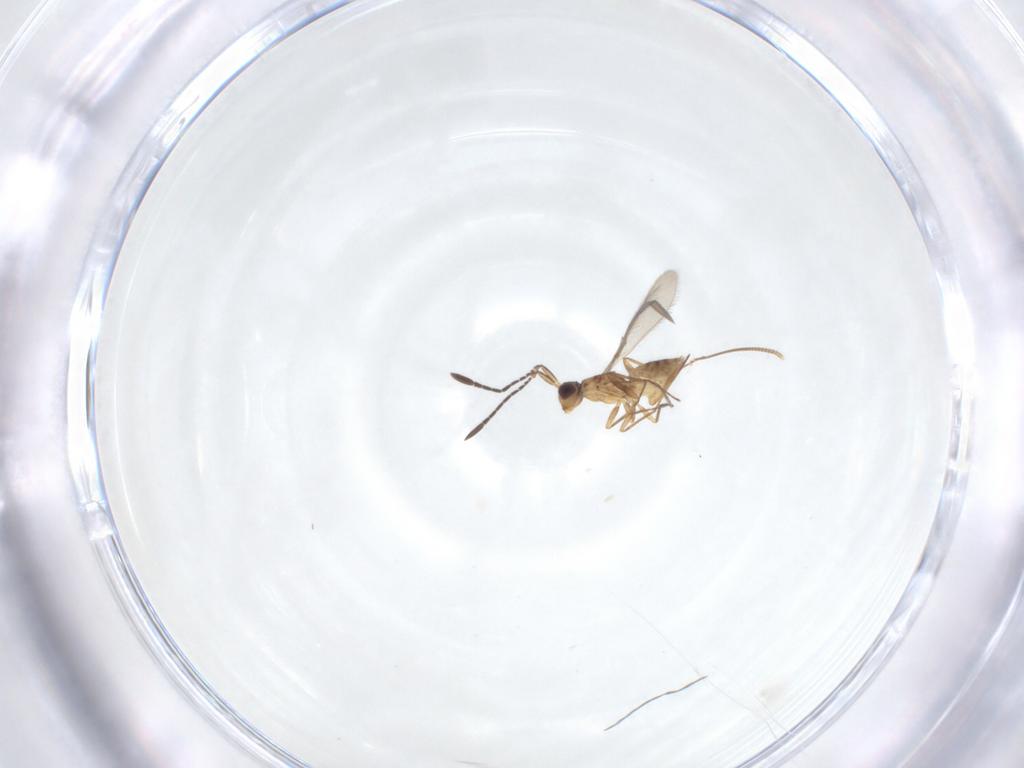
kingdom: Animalia
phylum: Arthropoda
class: Insecta
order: Hymenoptera
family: Mymaridae
